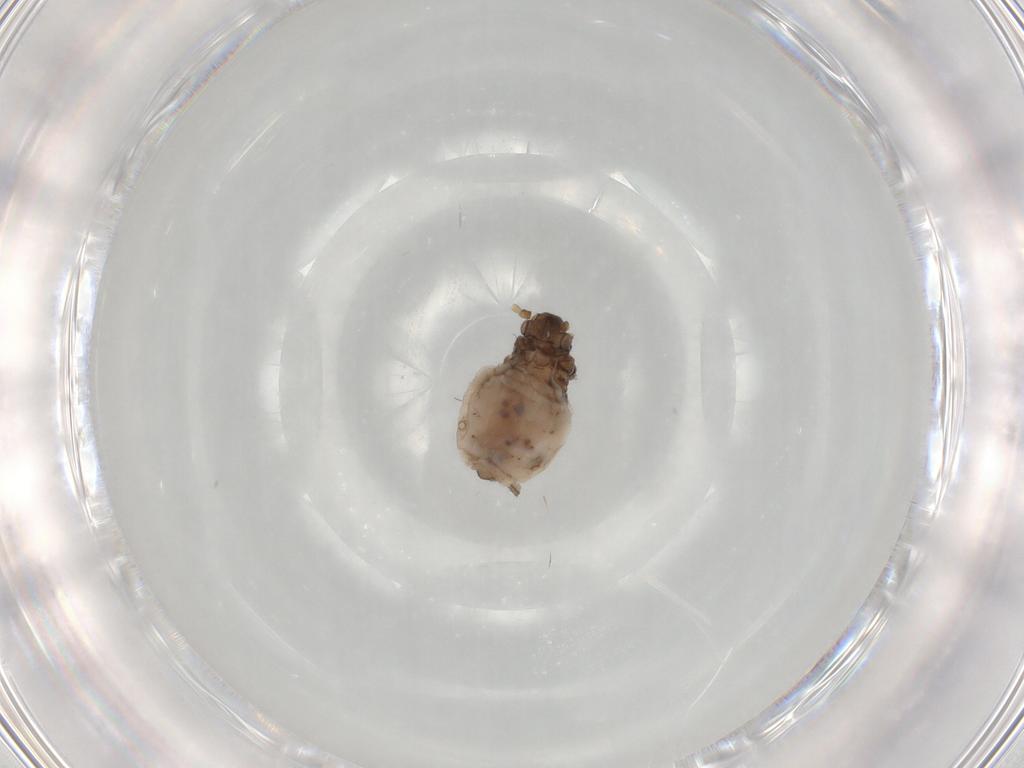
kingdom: Animalia
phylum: Arthropoda
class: Insecta
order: Hemiptera
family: Aphididae
